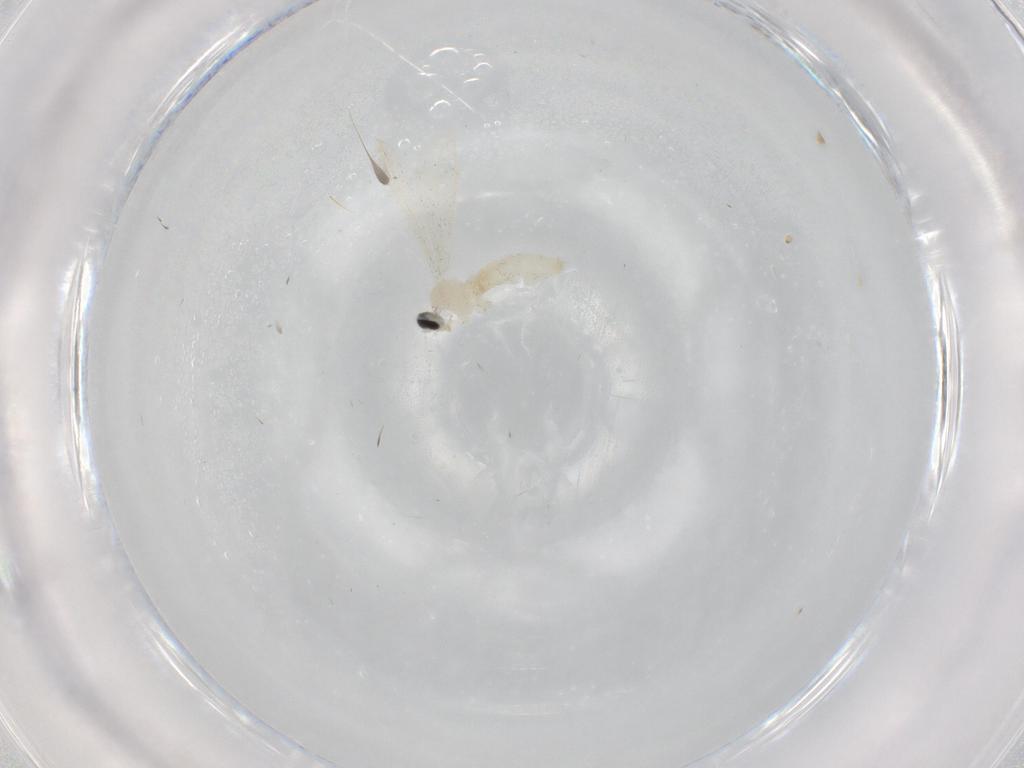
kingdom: Animalia
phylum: Arthropoda
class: Insecta
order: Diptera
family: Cecidomyiidae
